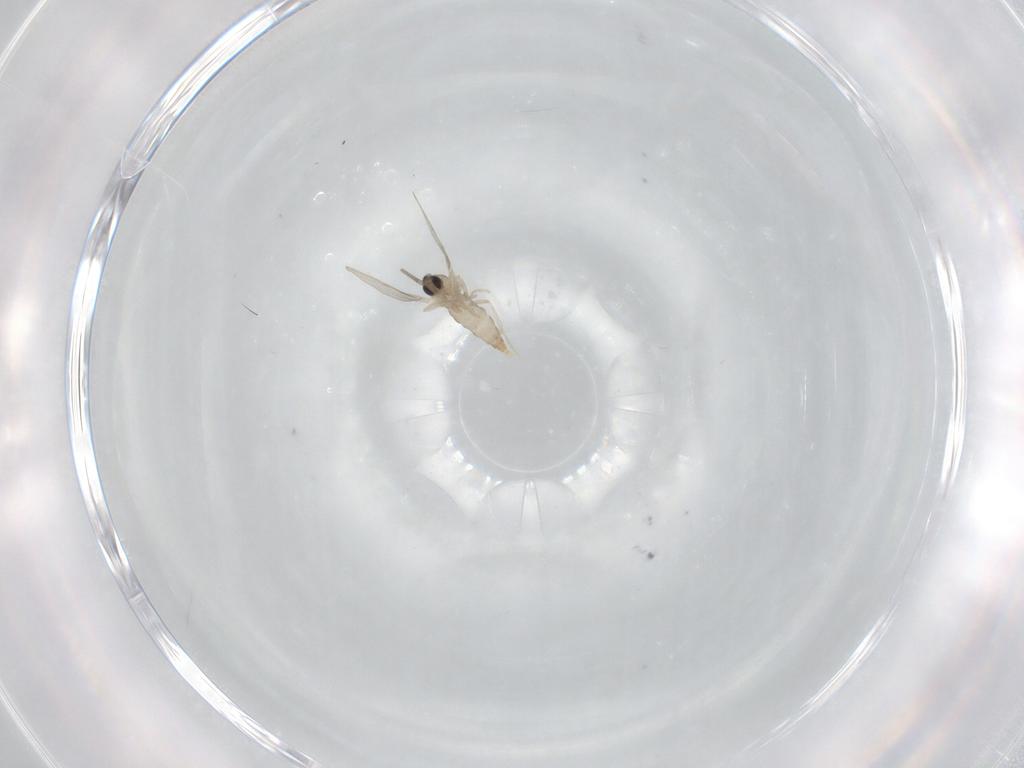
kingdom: Animalia
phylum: Arthropoda
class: Insecta
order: Diptera
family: Cecidomyiidae
